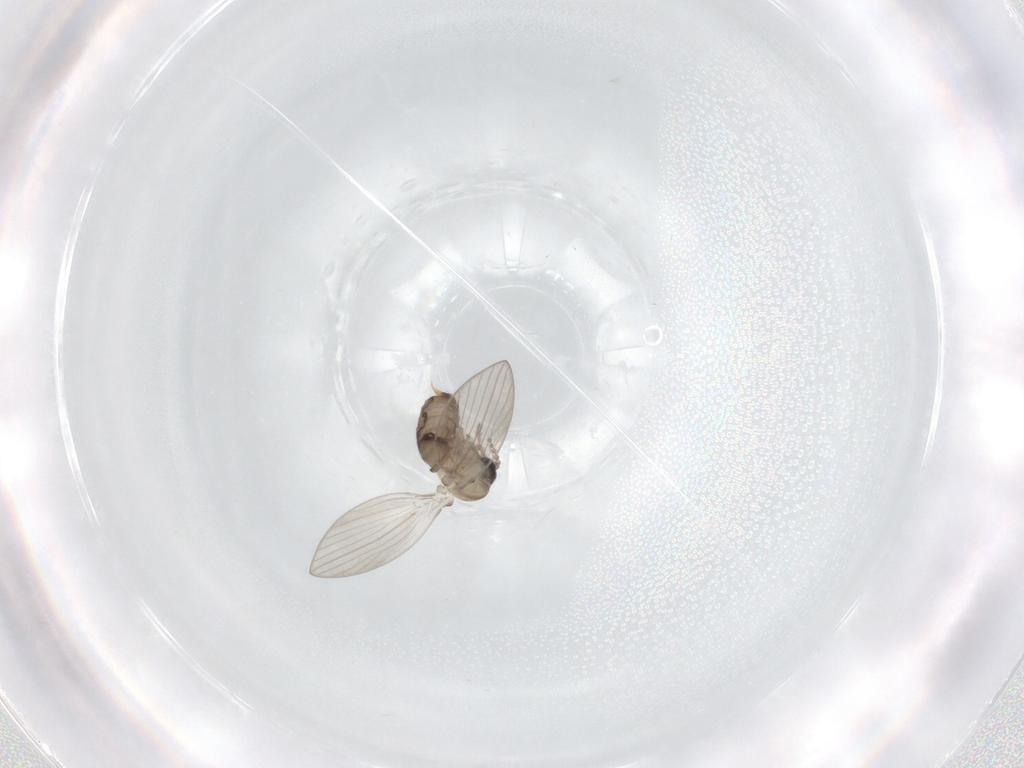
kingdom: Animalia
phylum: Arthropoda
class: Insecta
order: Diptera
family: Psychodidae
